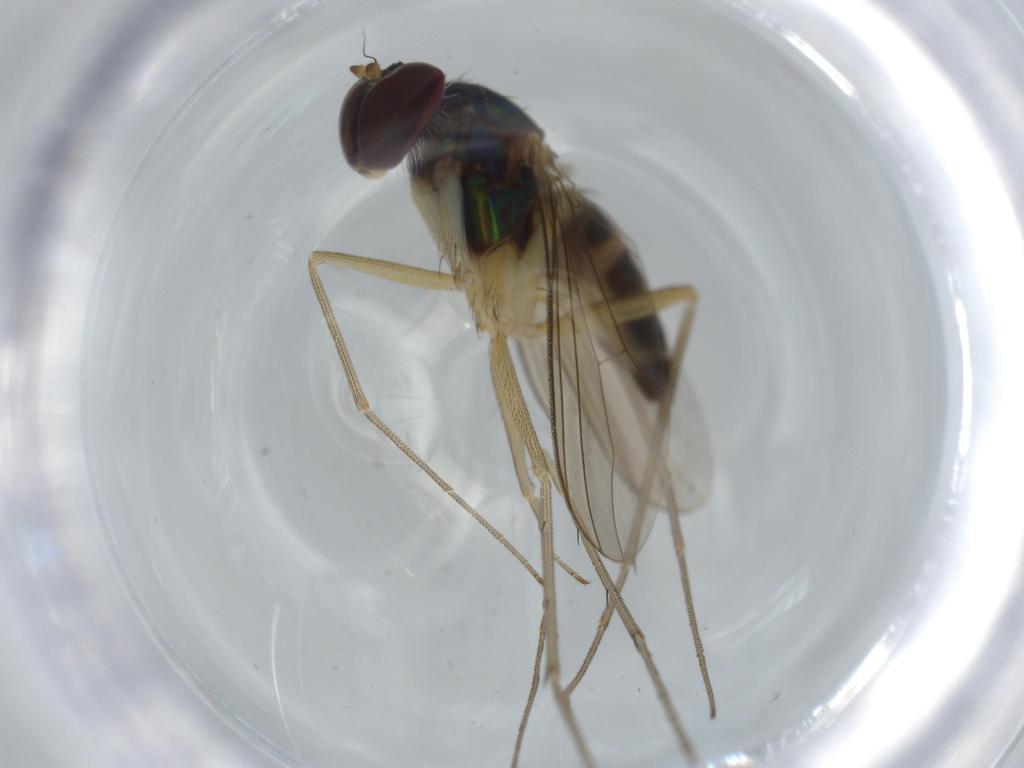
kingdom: Animalia
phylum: Arthropoda
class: Insecta
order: Diptera
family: Dolichopodidae
